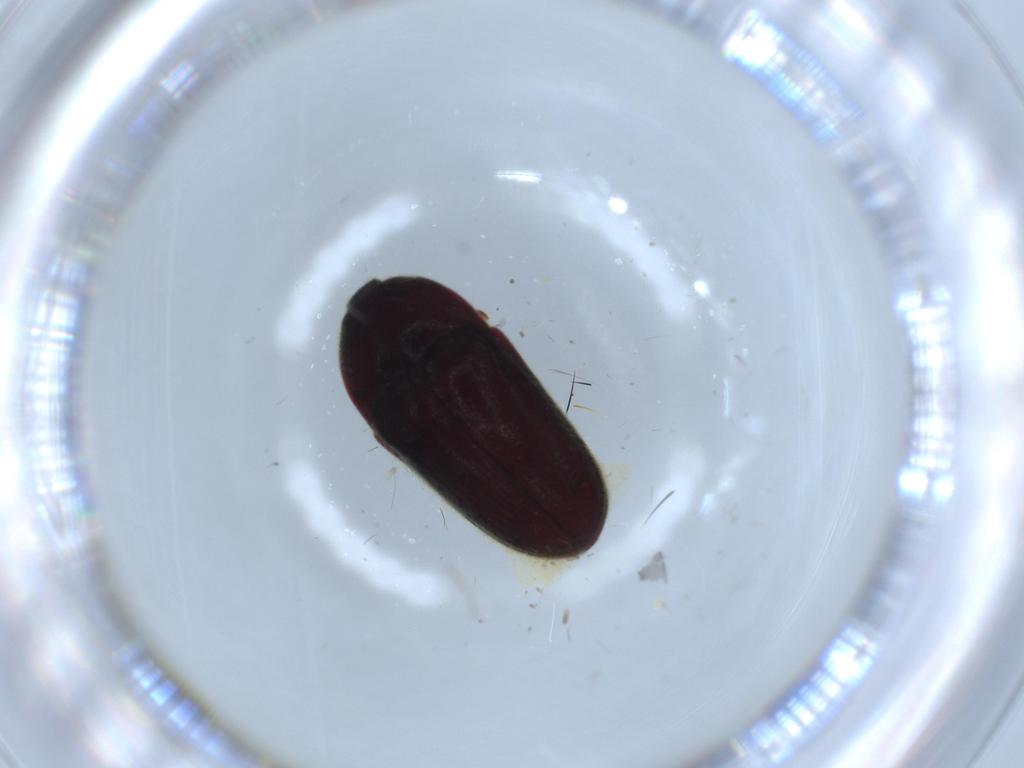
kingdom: Animalia
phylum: Arthropoda
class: Insecta
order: Coleoptera
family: Throscidae
